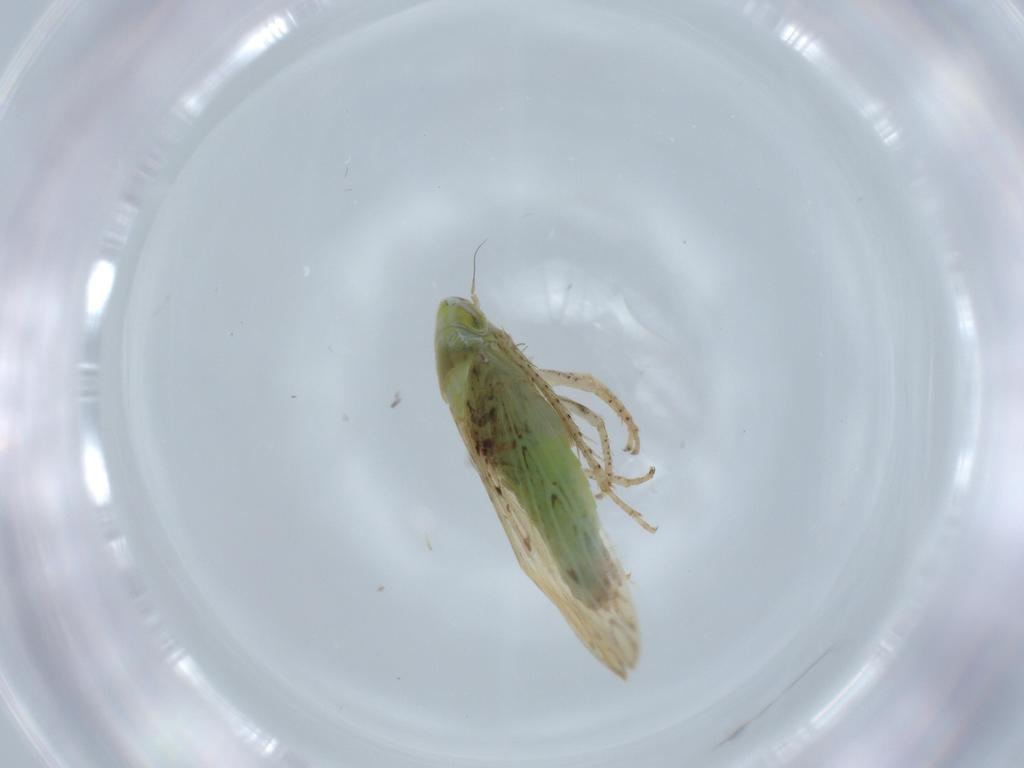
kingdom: Animalia
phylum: Arthropoda
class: Insecta
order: Hemiptera
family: Cicadellidae
